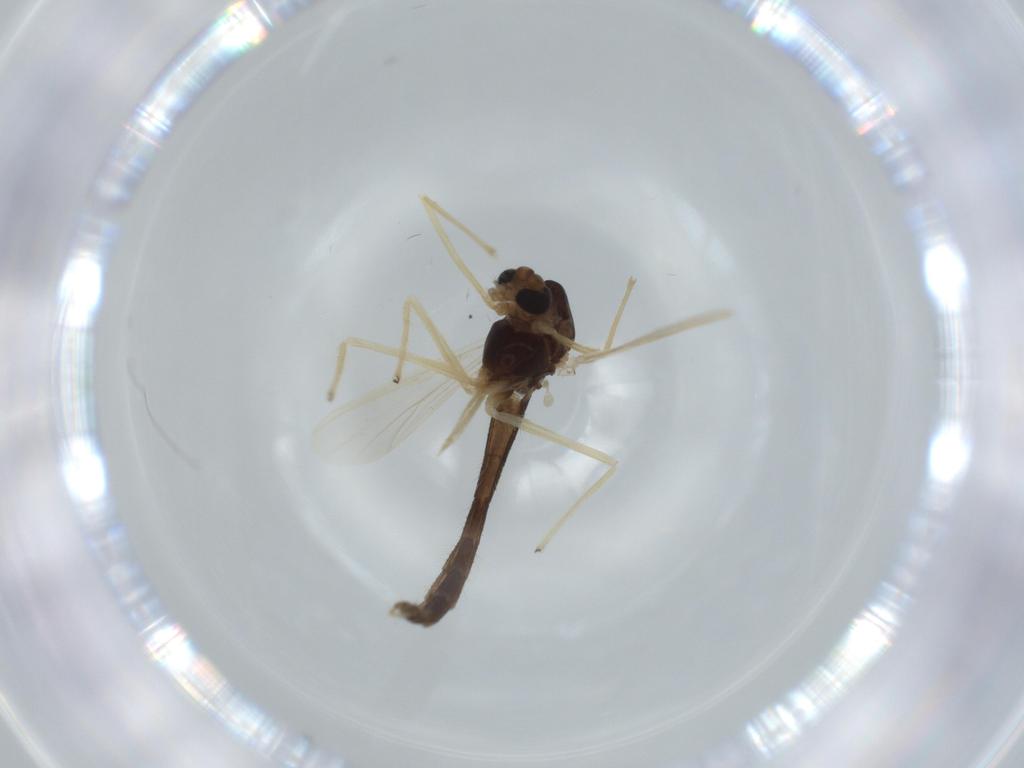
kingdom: Animalia
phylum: Arthropoda
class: Insecta
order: Diptera
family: Chironomidae
